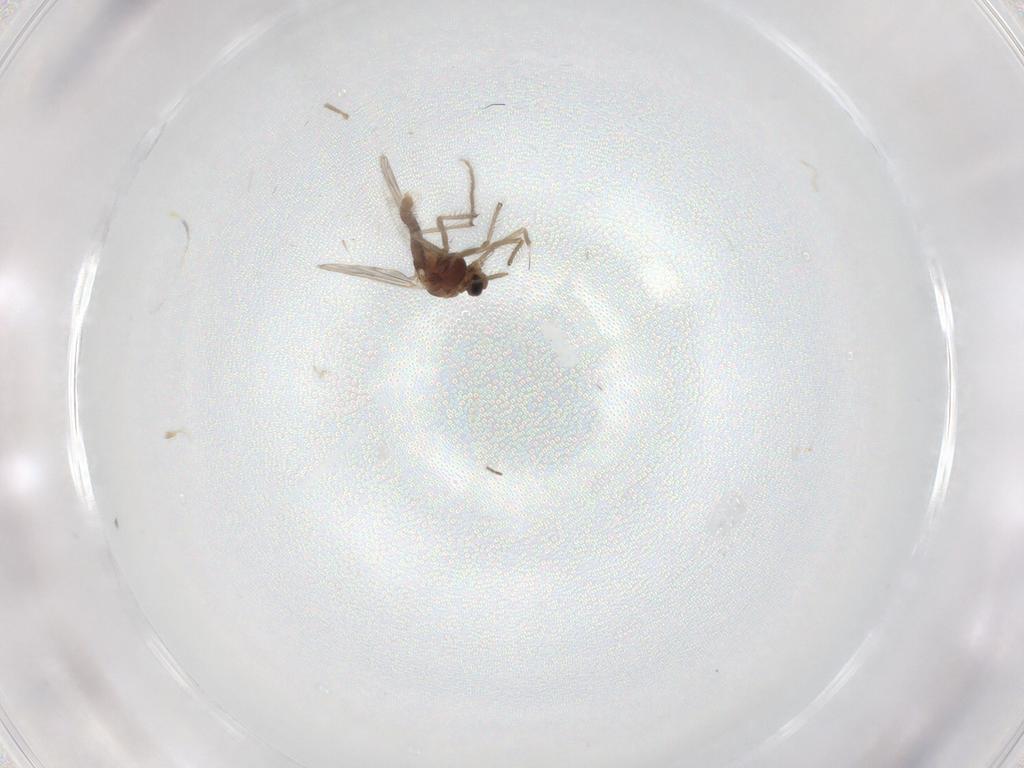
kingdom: Animalia
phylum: Arthropoda
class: Insecta
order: Diptera
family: Chironomidae
